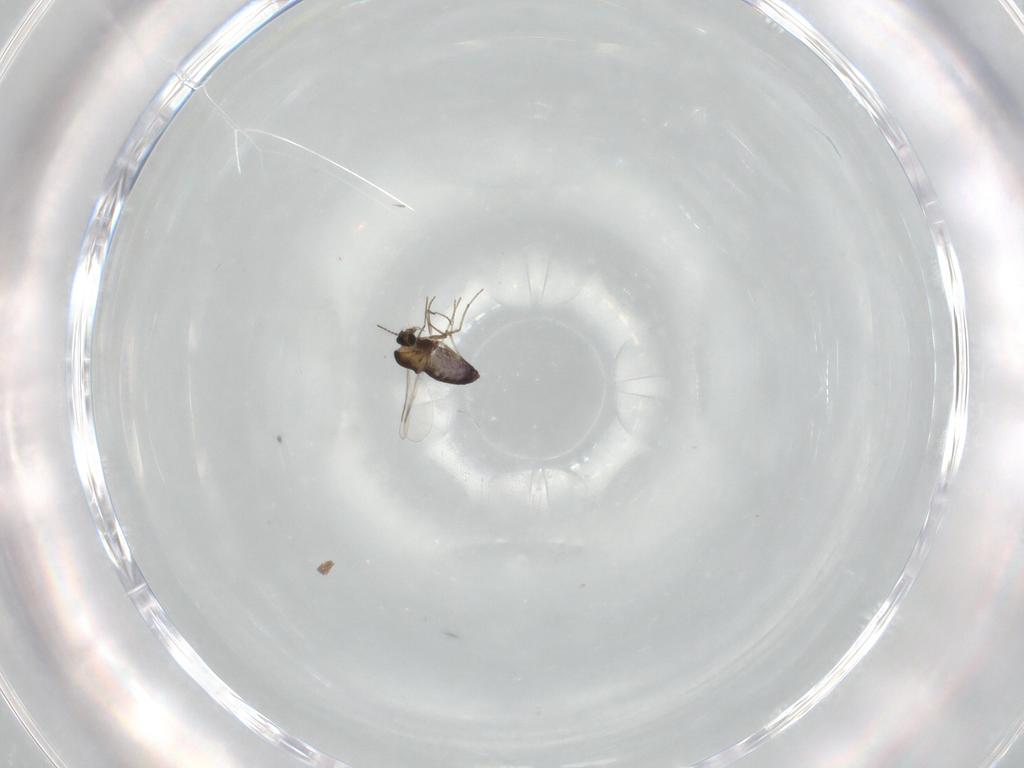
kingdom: Animalia
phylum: Arthropoda
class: Insecta
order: Diptera
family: Chironomidae
